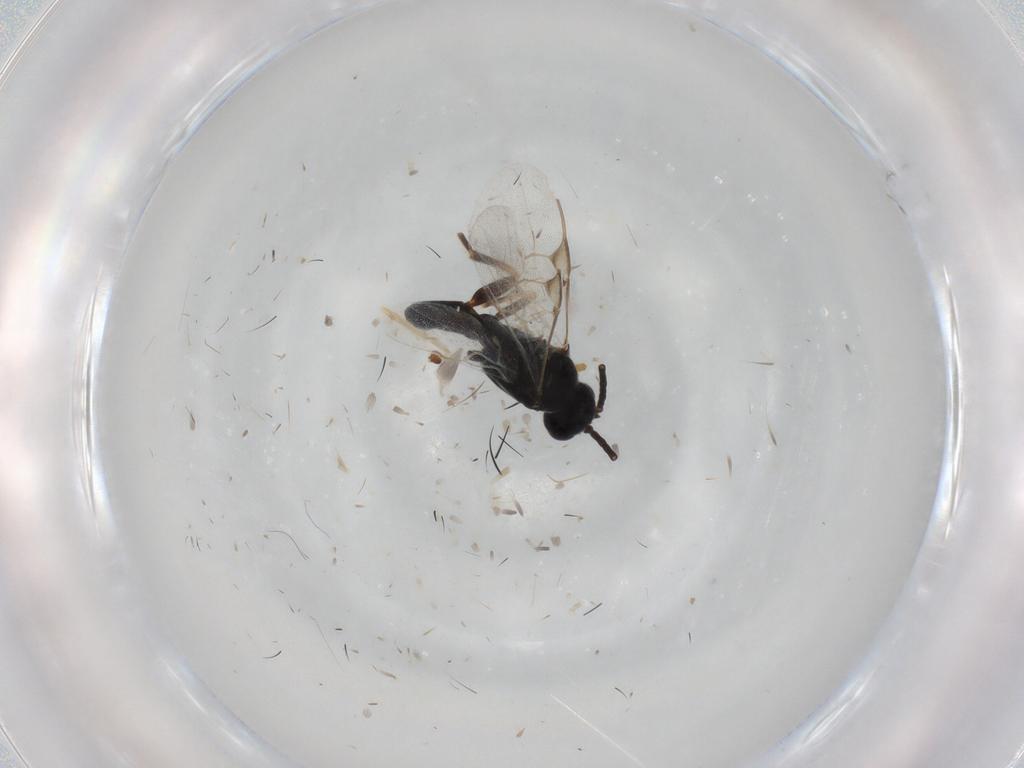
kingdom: Animalia
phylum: Arthropoda
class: Insecta
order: Hymenoptera
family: Braconidae
